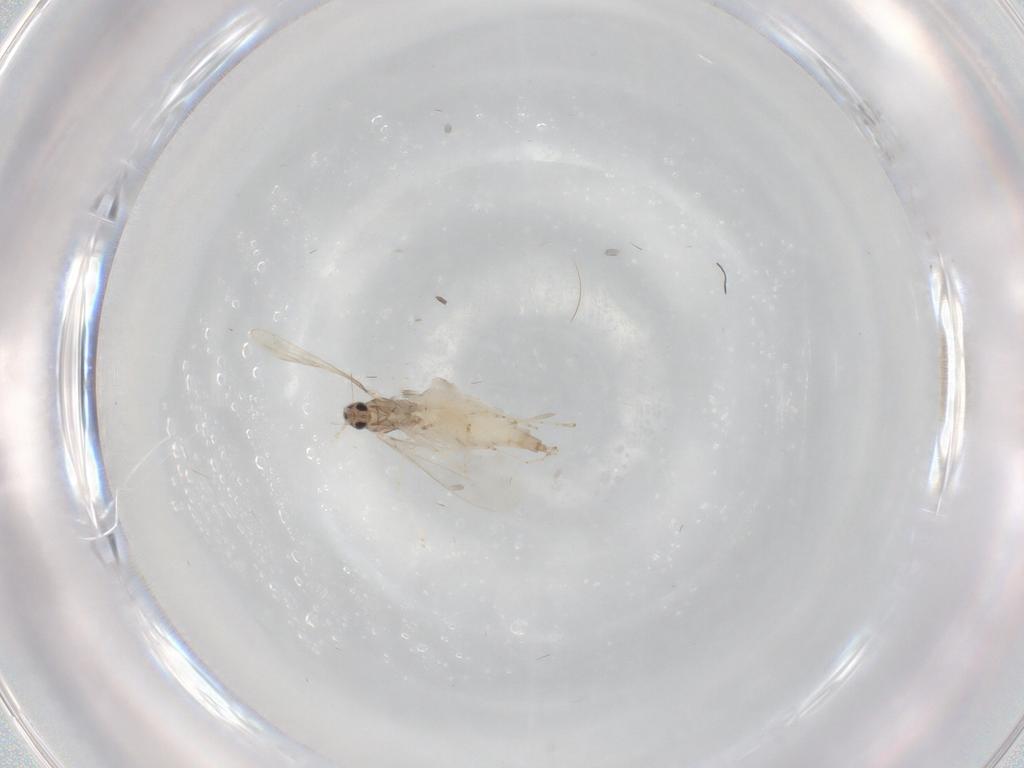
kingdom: Animalia
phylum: Arthropoda
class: Insecta
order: Diptera
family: Cecidomyiidae
